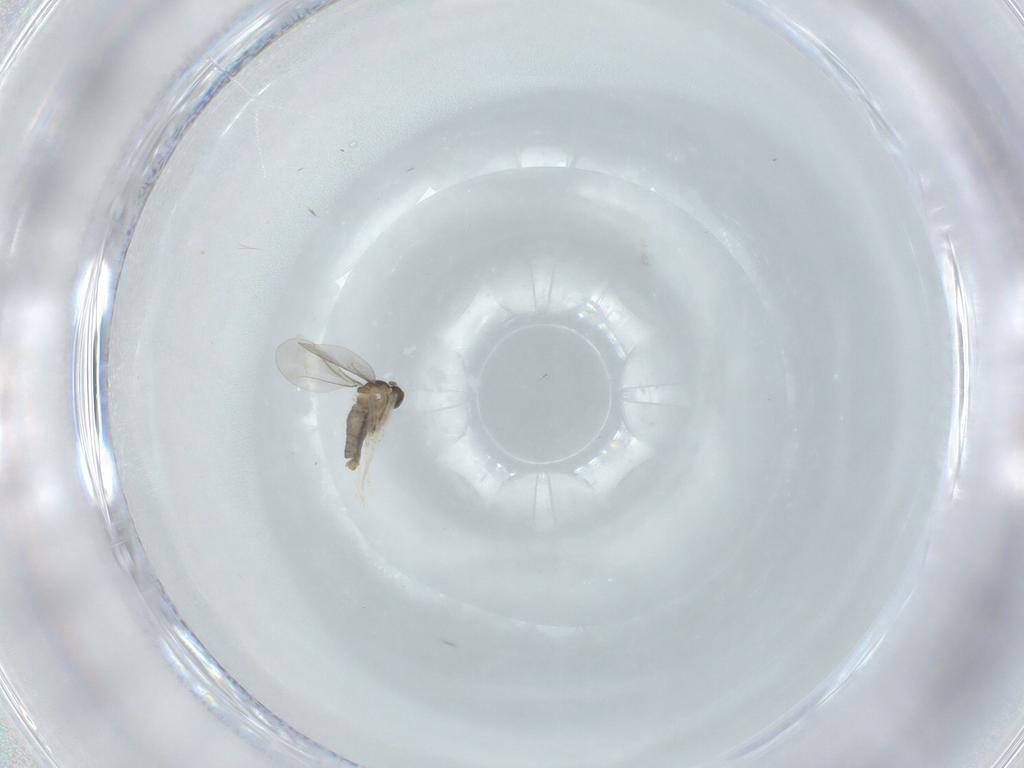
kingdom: Animalia
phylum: Arthropoda
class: Insecta
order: Diptera
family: Cecidomyiidae
